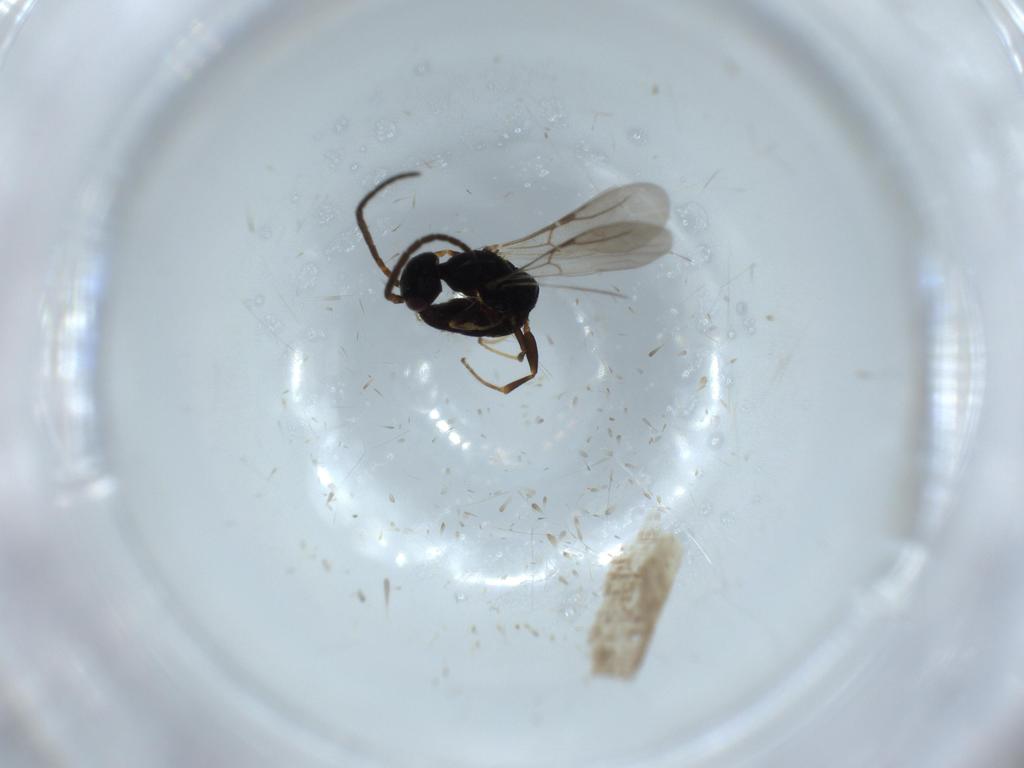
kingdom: Animalia
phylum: Arthropoda
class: Insecta
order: Hymenoptera
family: Bethylidae
